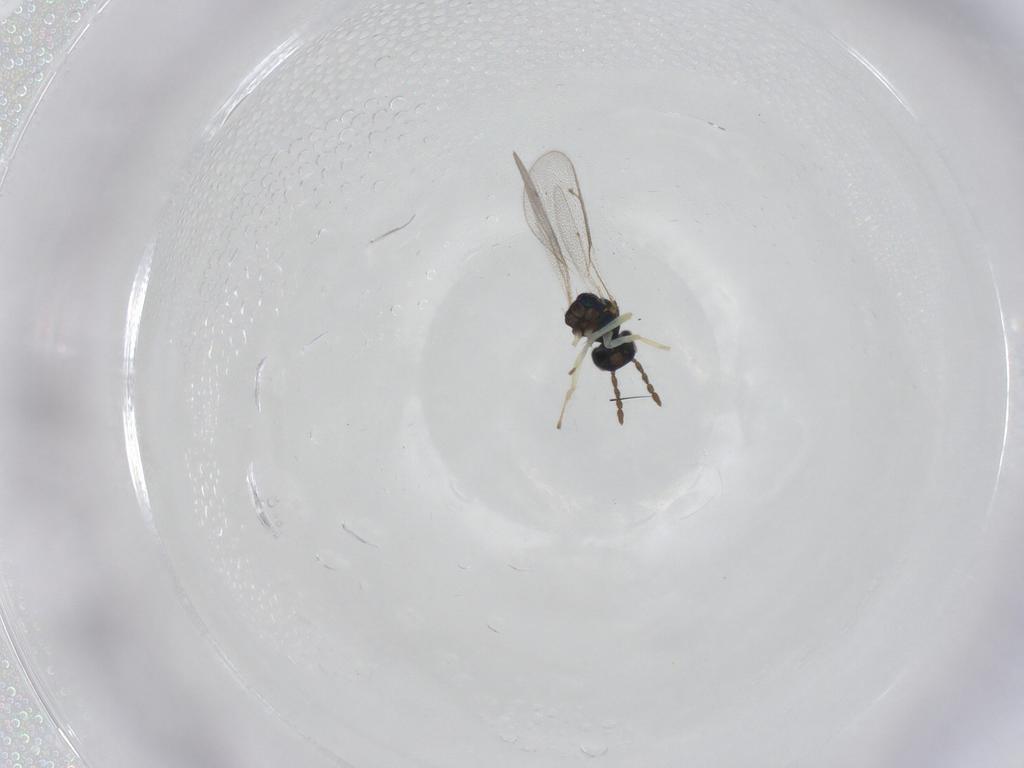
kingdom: Animalia
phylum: Arthropoda
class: Insecta
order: Hymenoptera
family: Eulophidae
